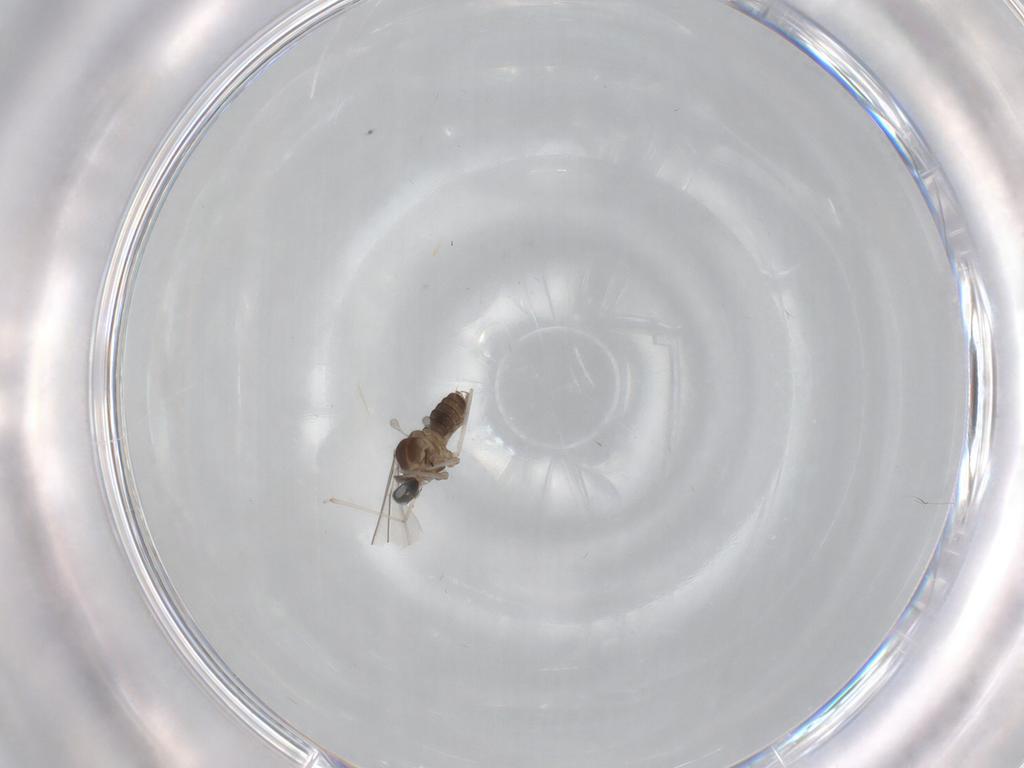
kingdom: Animalia
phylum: Arthropoda
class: Insecta
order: Diptera
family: Cecidomyiidae
